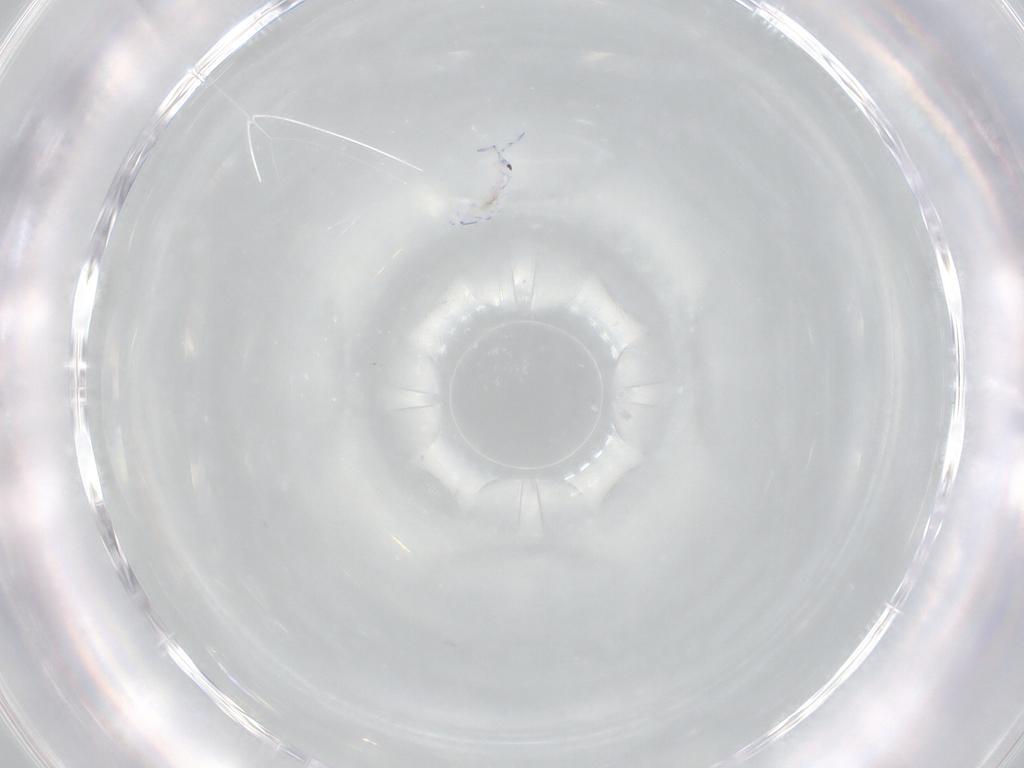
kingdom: Animalia
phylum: Arthropoda
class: Collembola
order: Entomobryomorpha
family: Entomobryidae
